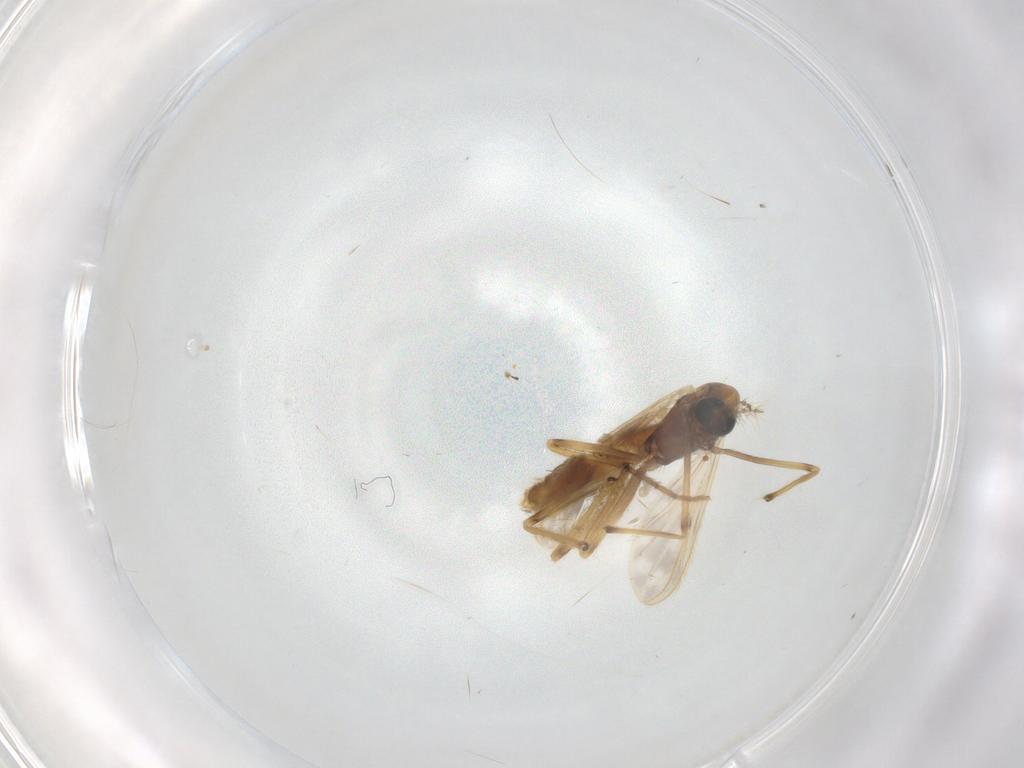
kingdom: Animalia
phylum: Arthropoda
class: Insecta
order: Diptera
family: Chironomidae
